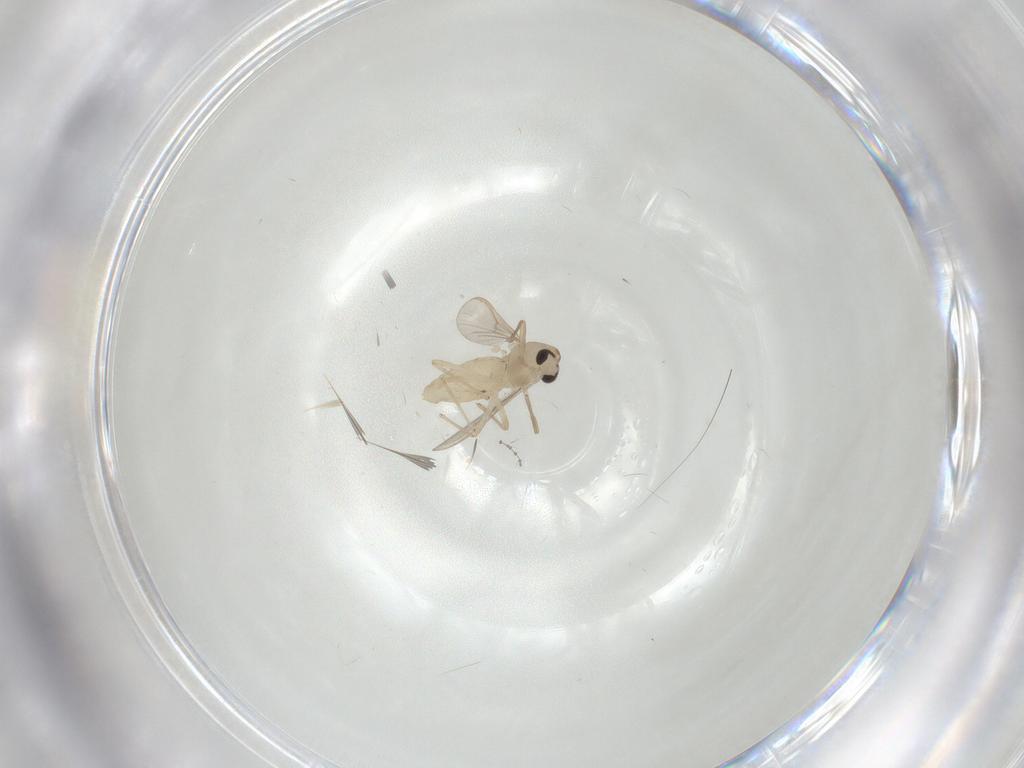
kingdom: Animalia
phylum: Arthropoda
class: Insecta
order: Diptera
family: Chironomidae
